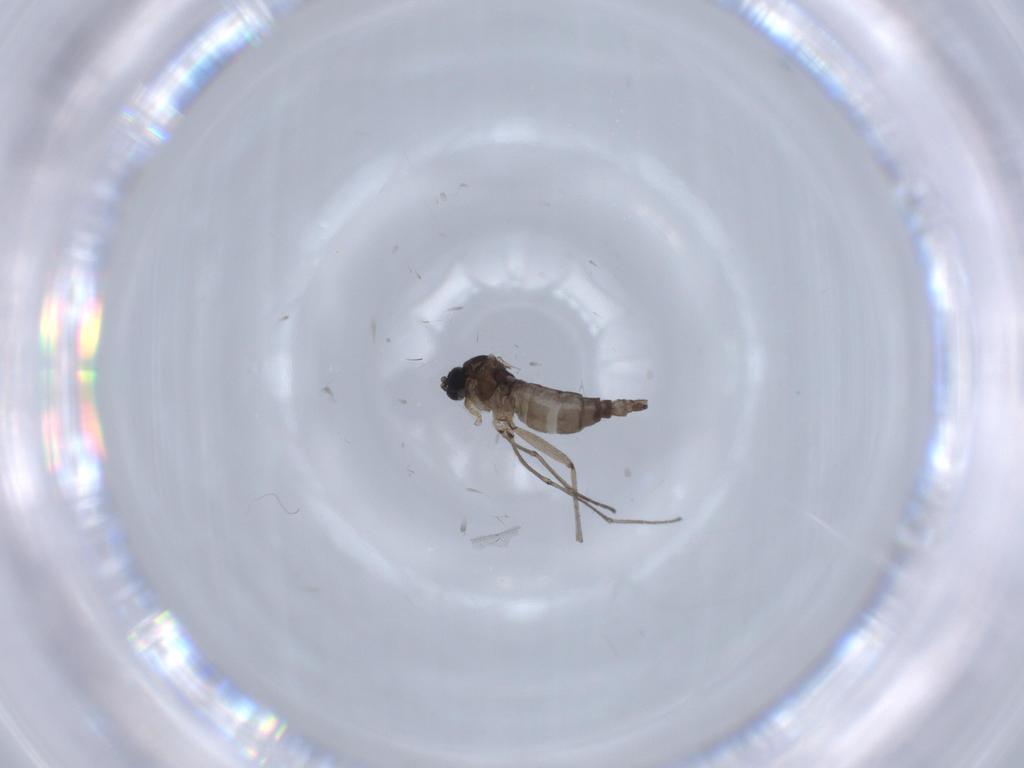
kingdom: Animalia
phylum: Arthropoda
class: Insecta
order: Diptera
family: Sciaridae
